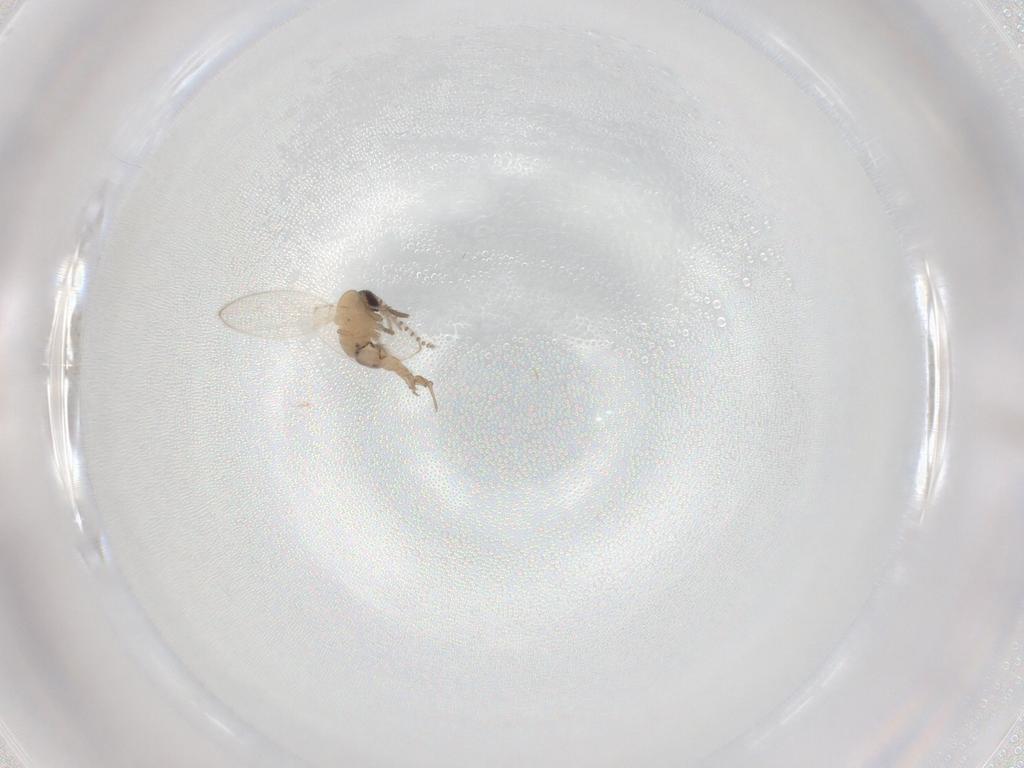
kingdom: Animalia
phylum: Arthropoda
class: Insecta
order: Diptera
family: Psychodidae
